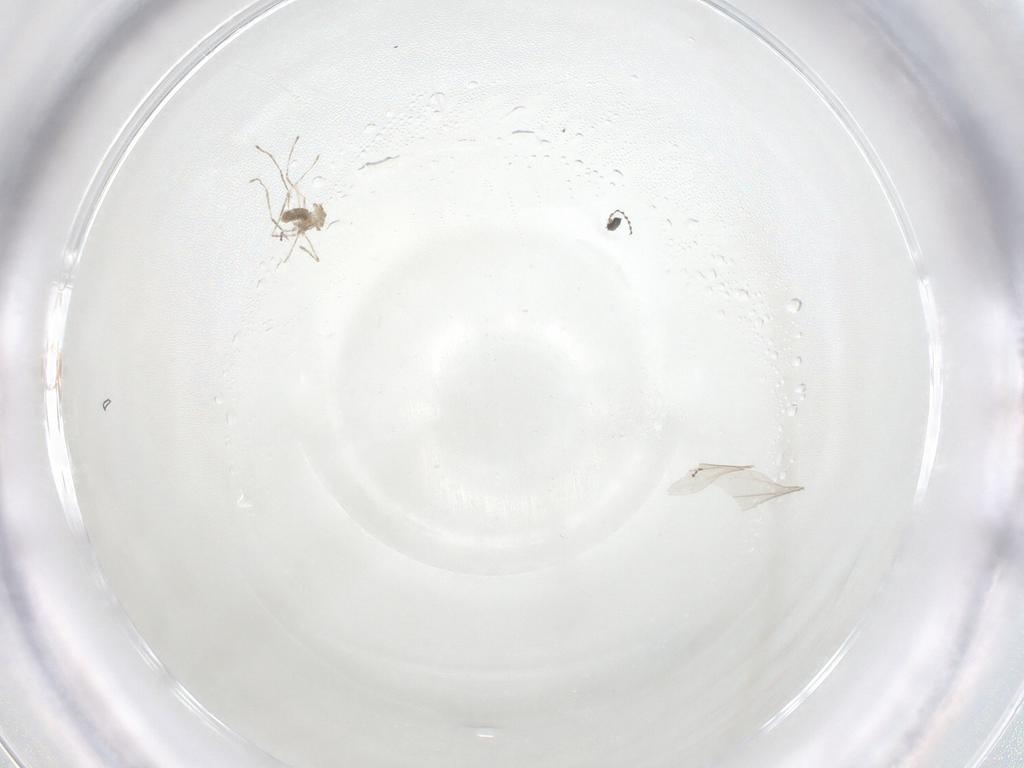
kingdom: Animalia
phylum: Arthropoda
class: Insecta
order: Diptera
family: Cecidomyiidae
